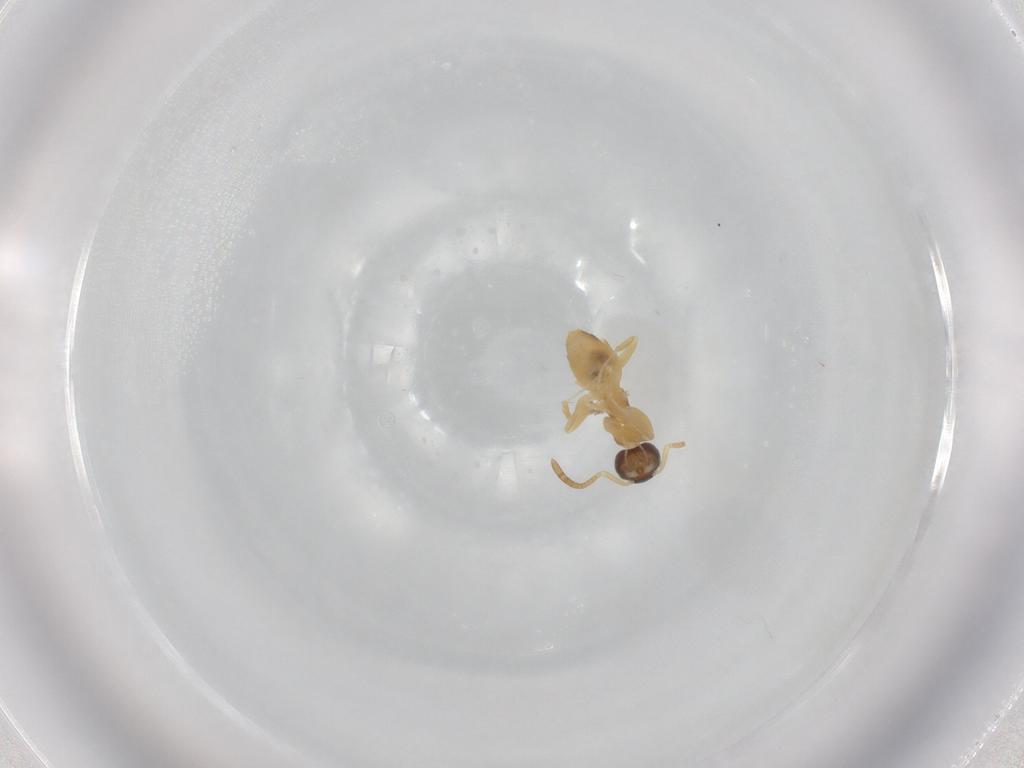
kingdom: Animalia
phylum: Arthropoda
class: Insecta
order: Hymenoptera
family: Formicidae
